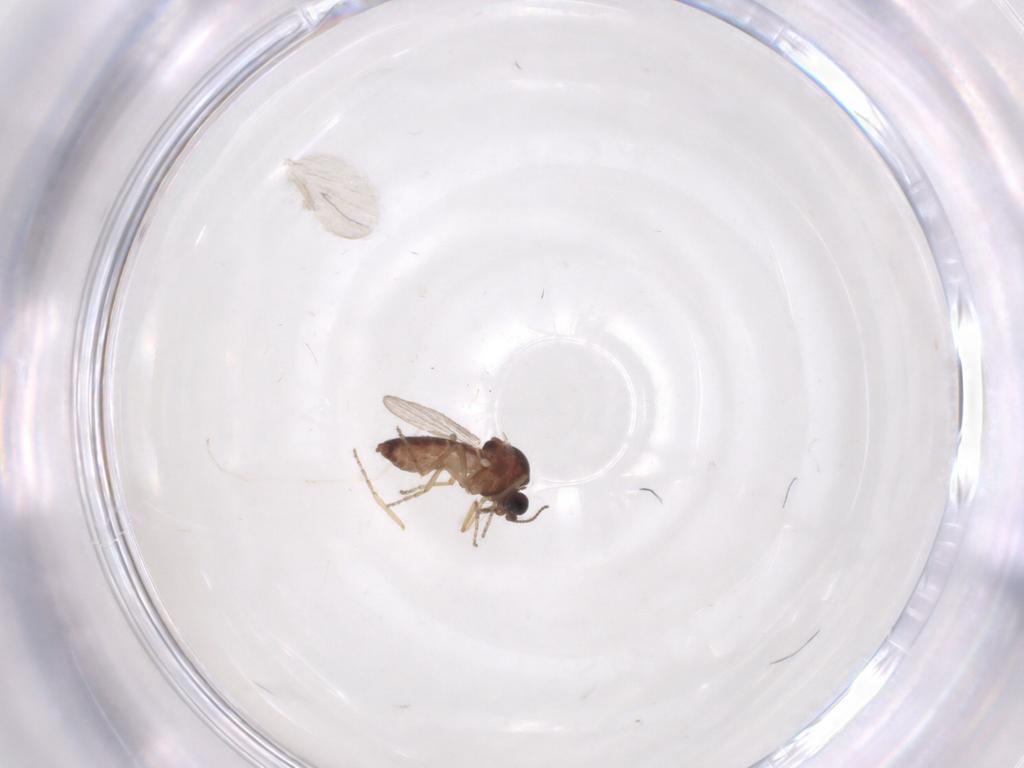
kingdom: Animalia
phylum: Arthropoda
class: Insecta
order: Diptera
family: Ceratopogonidae
